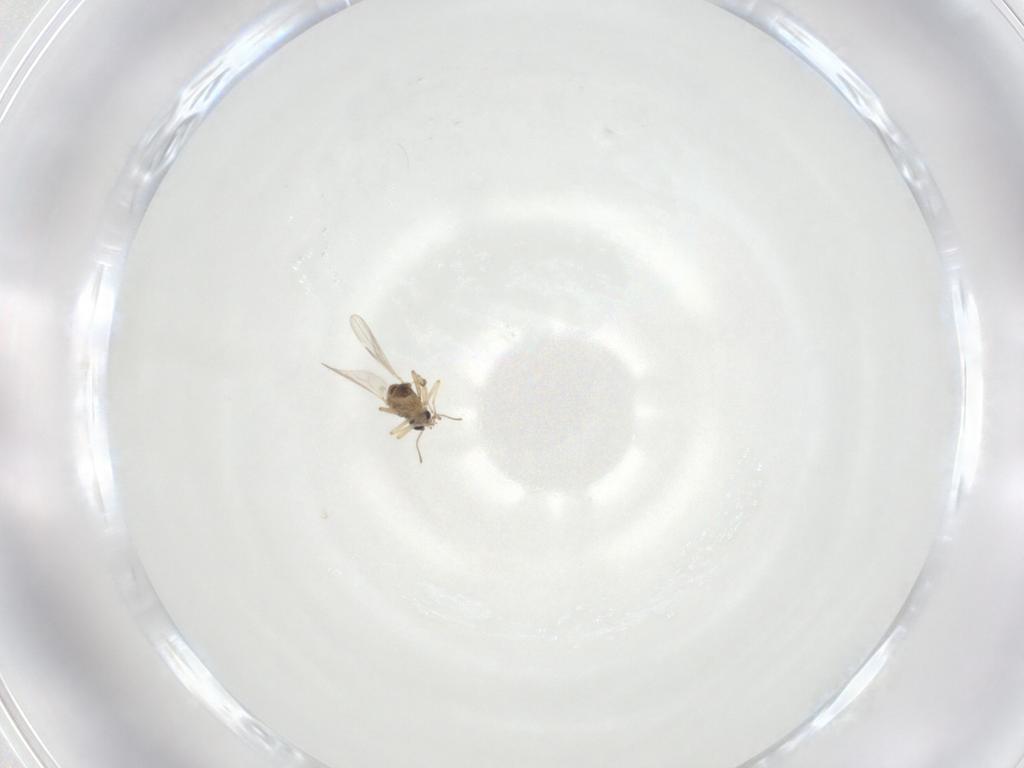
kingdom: Animalia
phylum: Arthropoda
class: Insecta
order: Diptera
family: Ceratopogonidae
